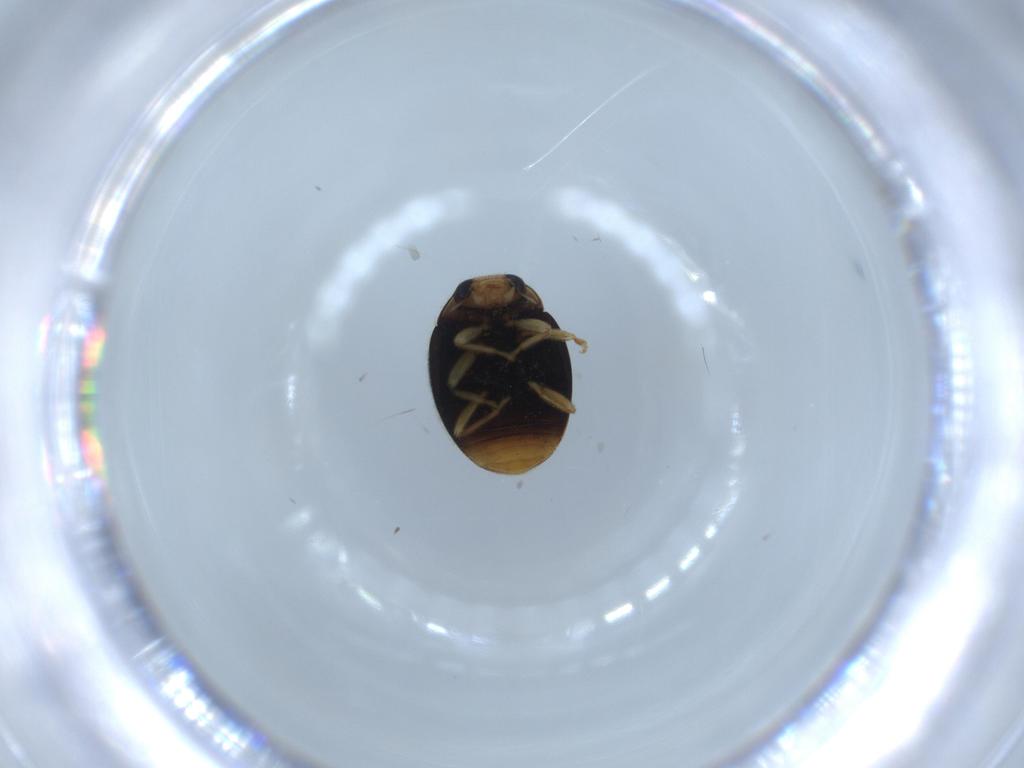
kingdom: Animalia
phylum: Arthropoda
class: Insecta
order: Coleoptera
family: Coccinellidae
